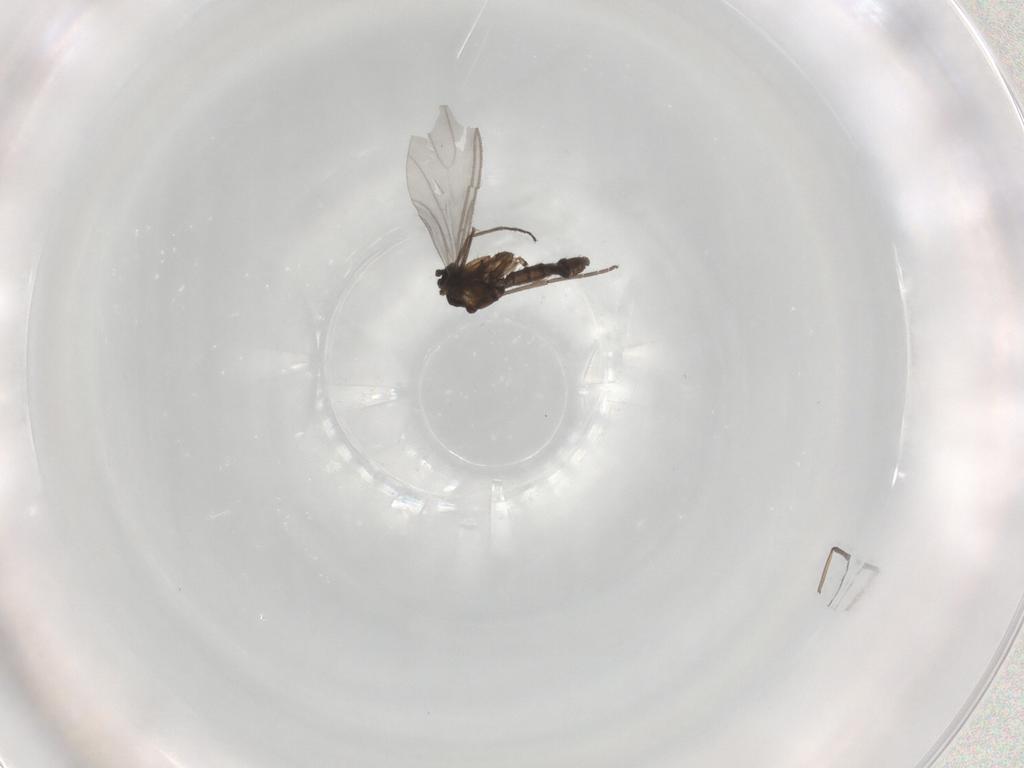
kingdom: Animalia
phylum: Arthropoda
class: Insecta
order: Diptera
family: Sciaridae
